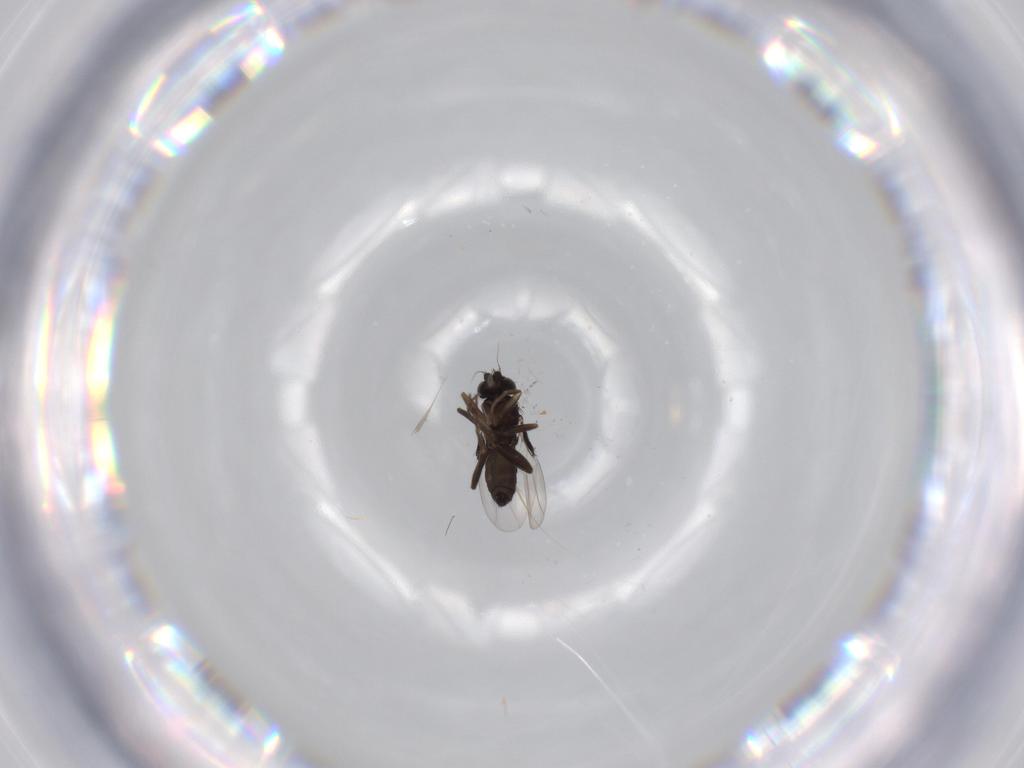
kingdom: Animalia
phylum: Arthropoda
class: Insecta
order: Diptera
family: Phoridae
